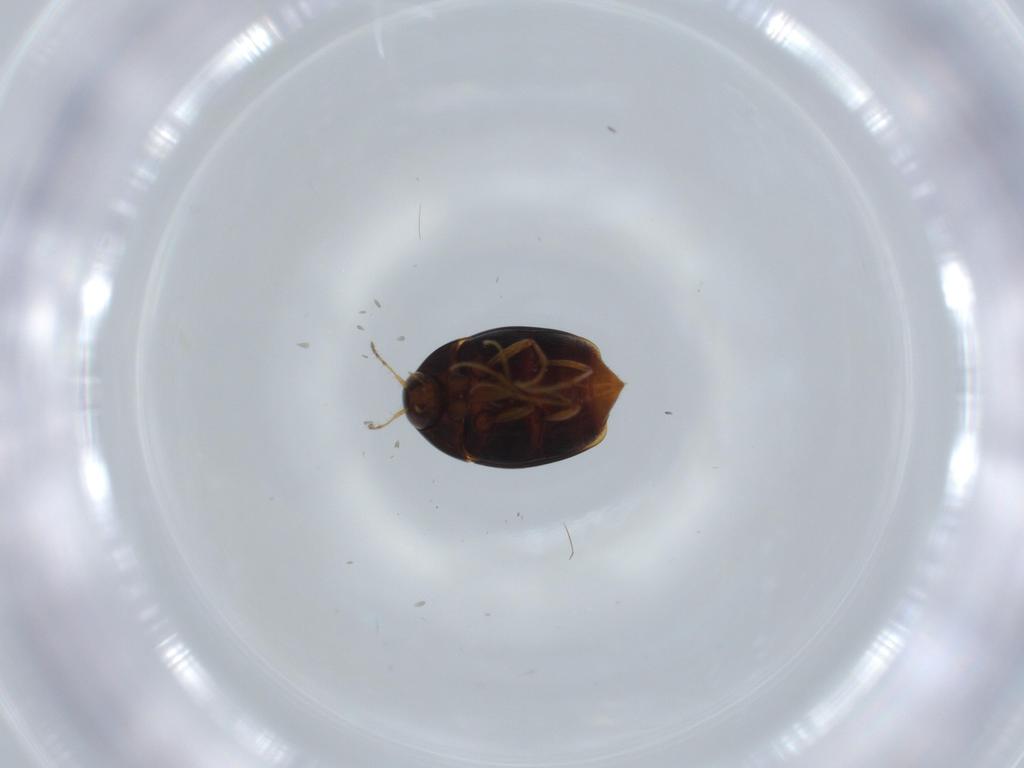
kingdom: Animalia
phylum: Arthropoda
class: Insecta
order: Coleoptera
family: Staphylinidae
